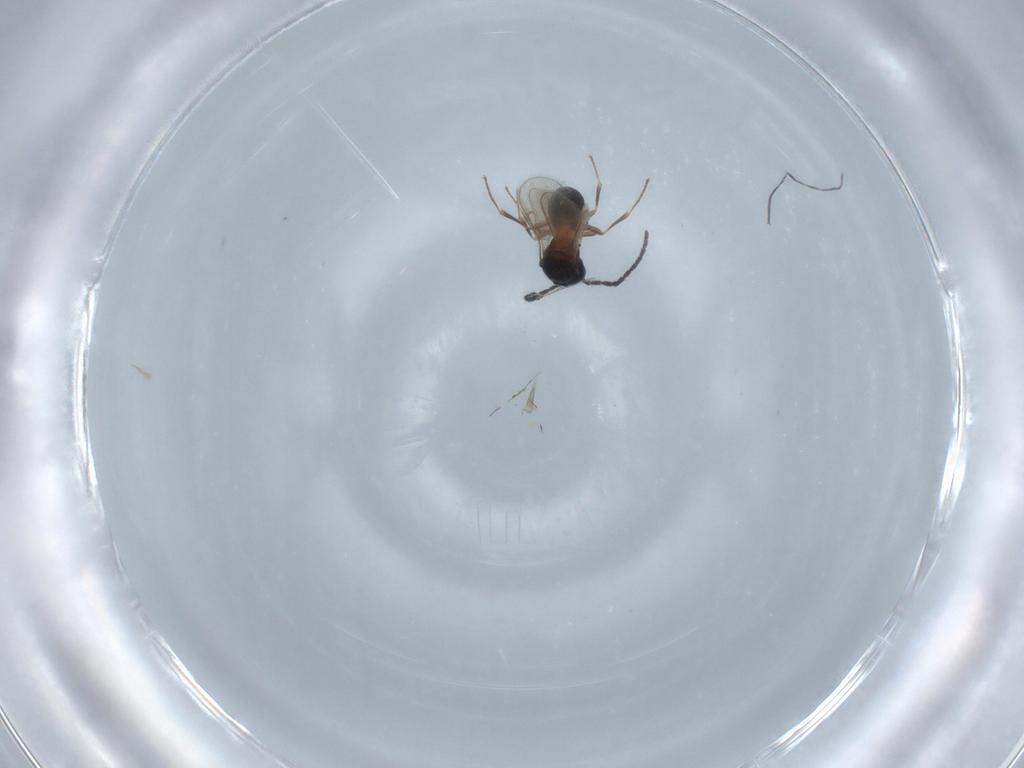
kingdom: Animalia
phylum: Arthropoda
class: Insecta
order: Hymenoptera
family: Scelionidae
